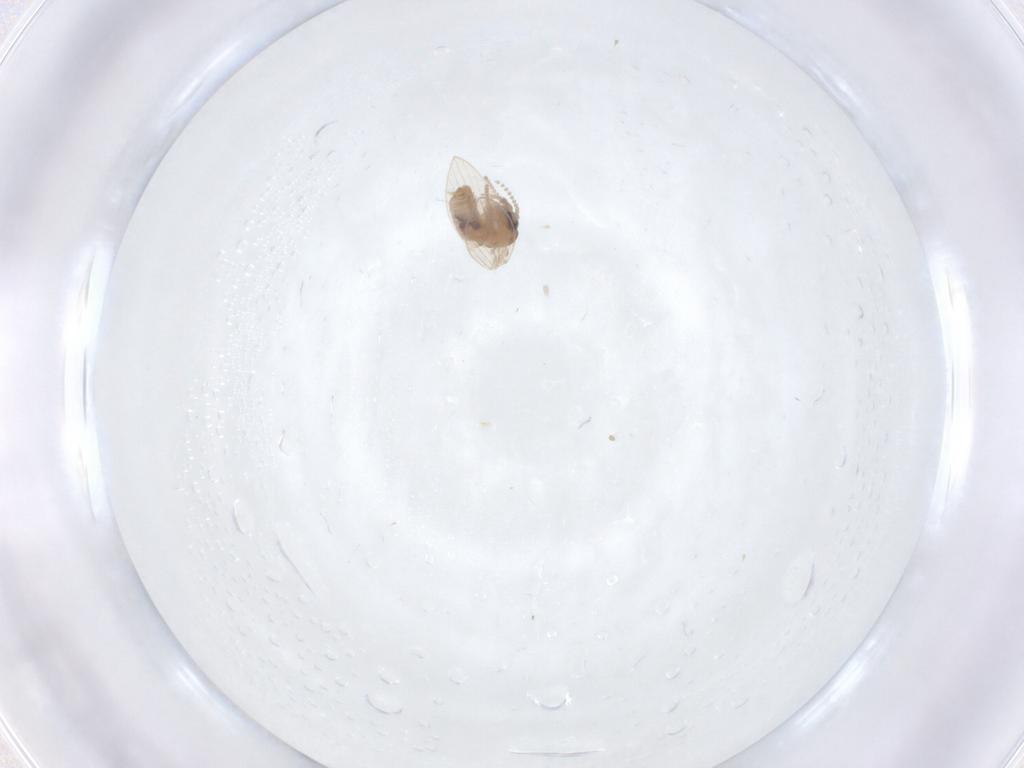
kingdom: Animalia
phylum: Arthropoda
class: Insecta
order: Diptera
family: Psychodidae
